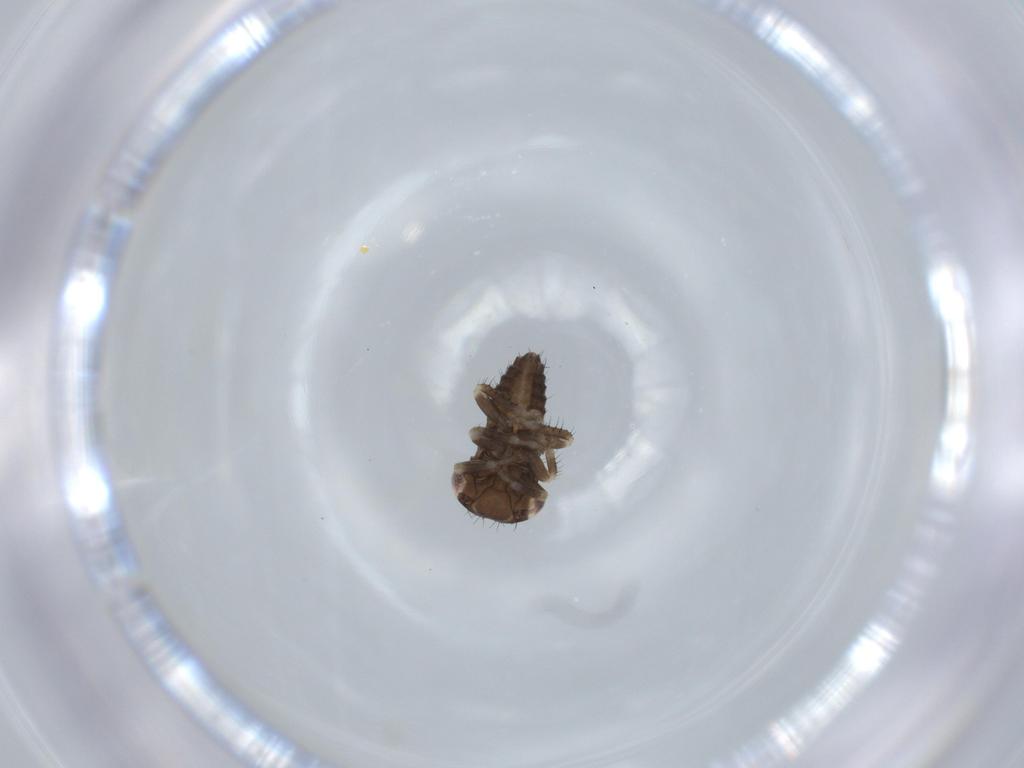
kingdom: Animalia
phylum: Arthropoda
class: Insecta
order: Hemiptera
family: Cicadellidae
